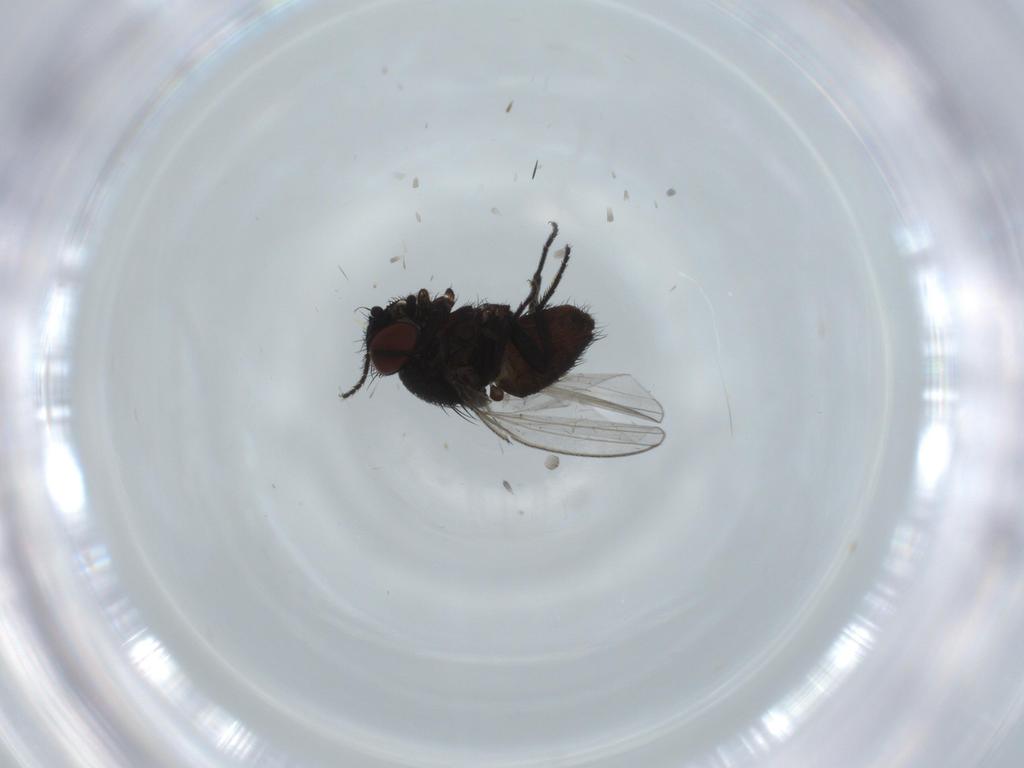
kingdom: Animalia
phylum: Arthropoda
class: Insecta
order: Diptera
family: Milichiidae
